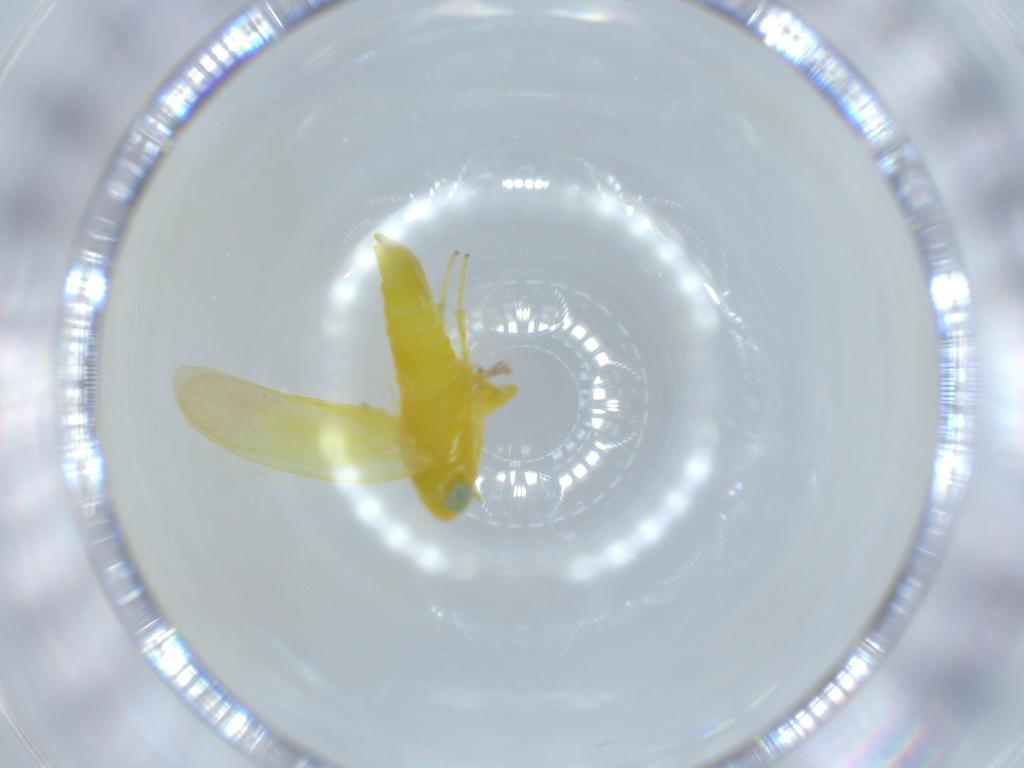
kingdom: Animalia
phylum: Arthropoda
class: Insecta
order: Hemiptera
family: Cicadellidae
